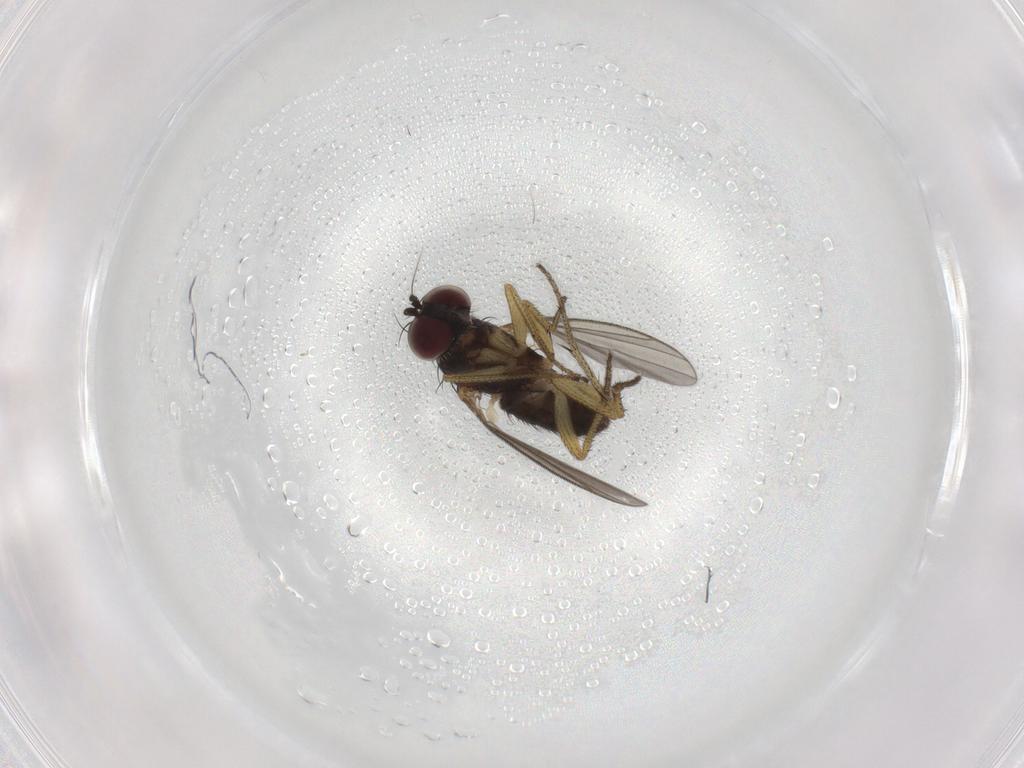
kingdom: Animalia
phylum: Arthropoda
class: Insecta
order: Diptera
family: Dolichopodidae
